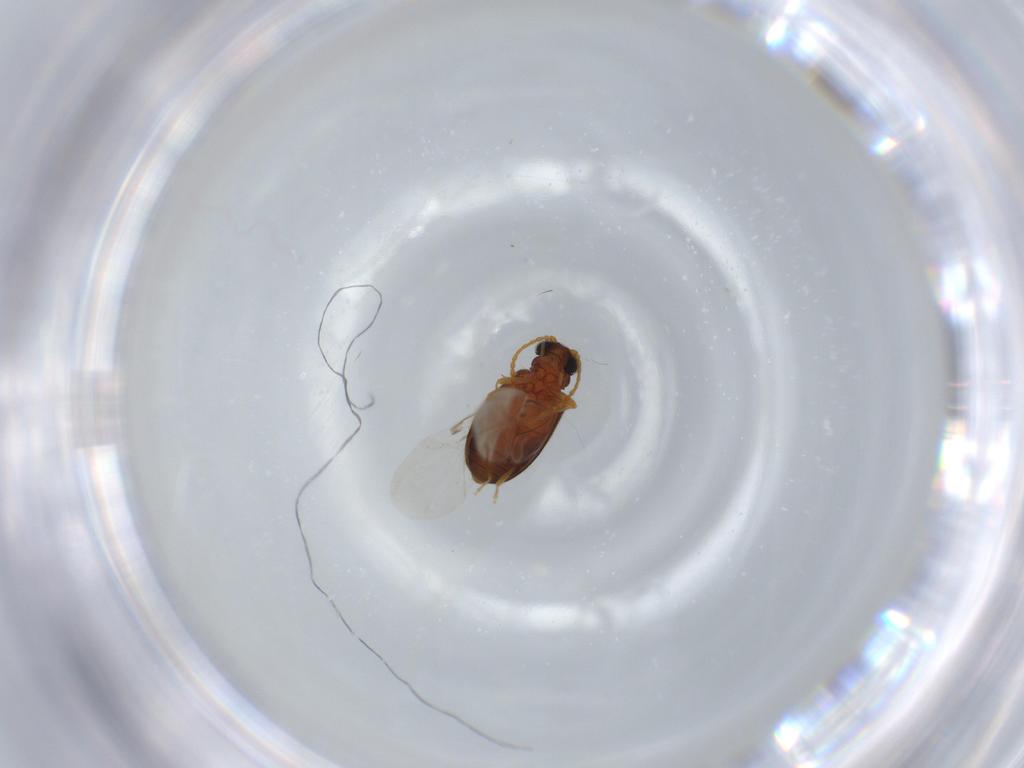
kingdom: Animalia
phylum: Arthropoda
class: Insecta
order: Coleoptera
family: Aderidae
